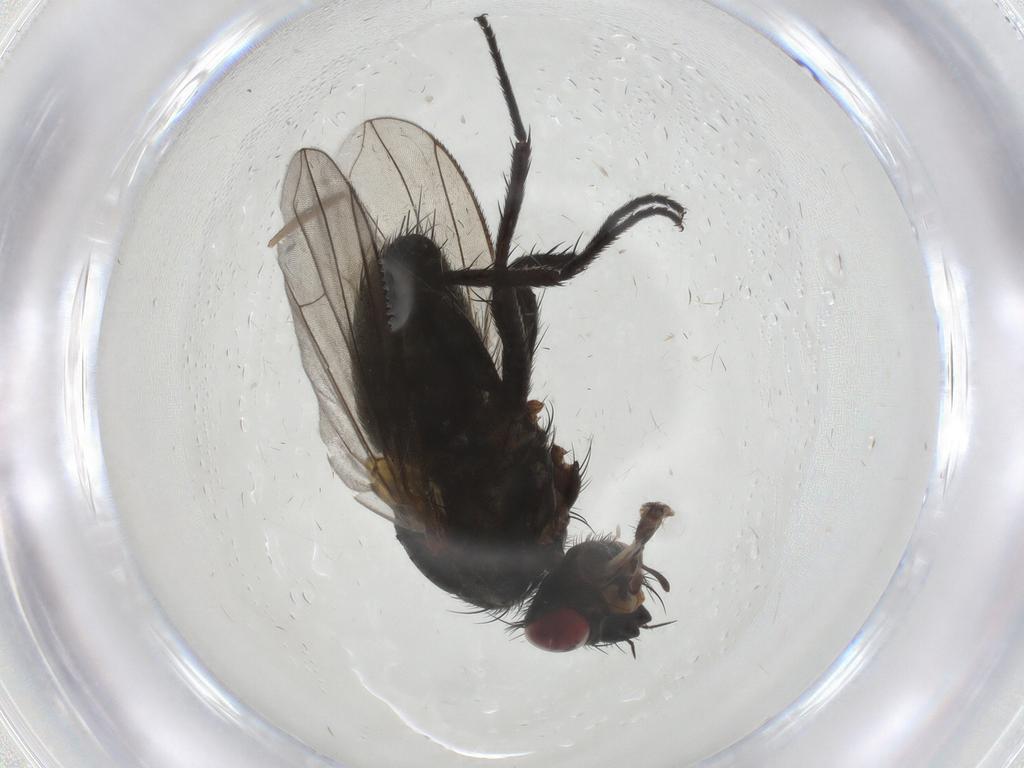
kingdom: Animalia
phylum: Arthropoda
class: Insecta
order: Diptera
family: Sciaridae
